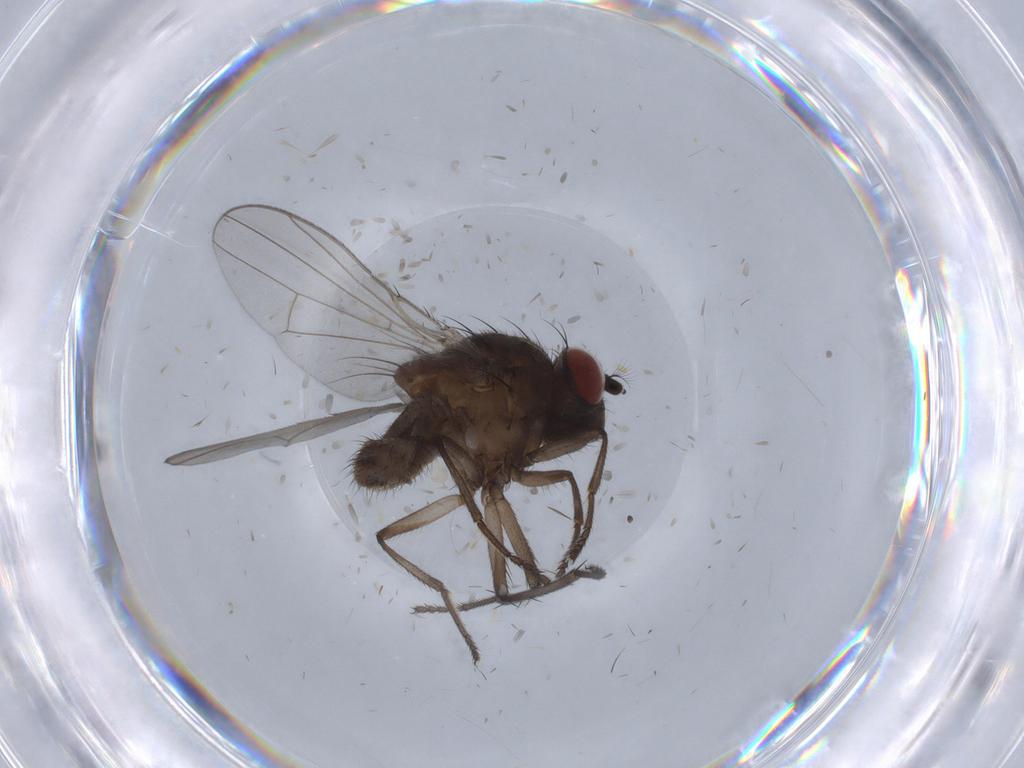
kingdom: Animalia
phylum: Arthropoda
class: Insecta
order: Diptera
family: Ephydridae
